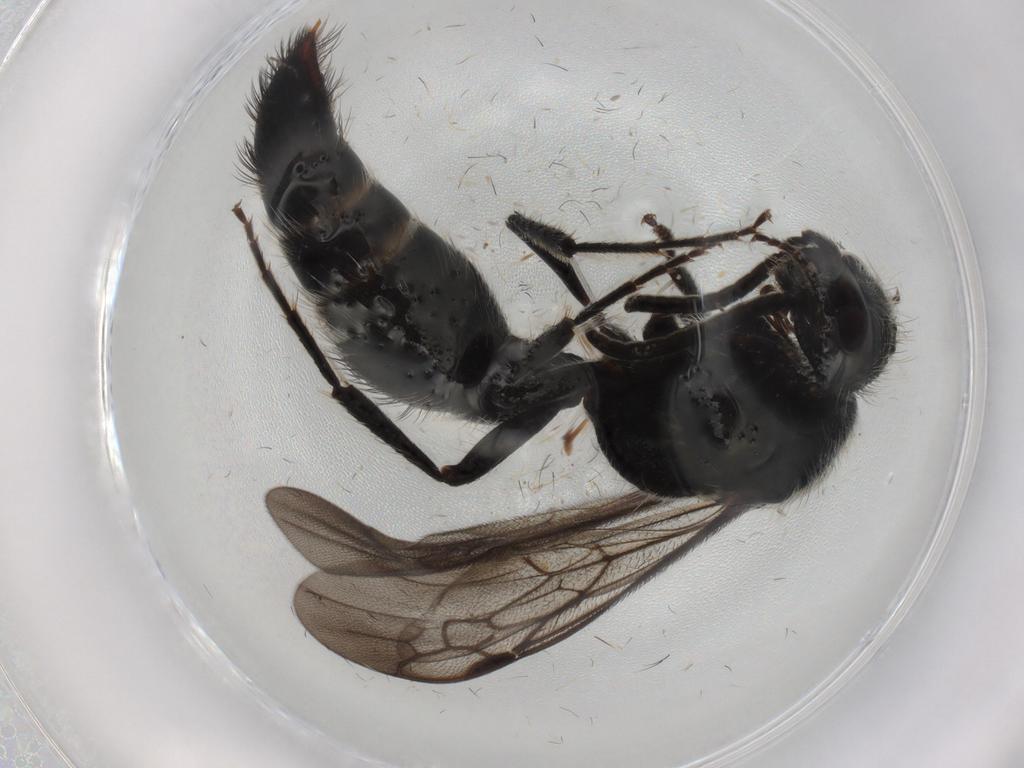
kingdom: Animalia
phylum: Arthropoda
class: Insecta
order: Hymenoptera
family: Mutillidae
